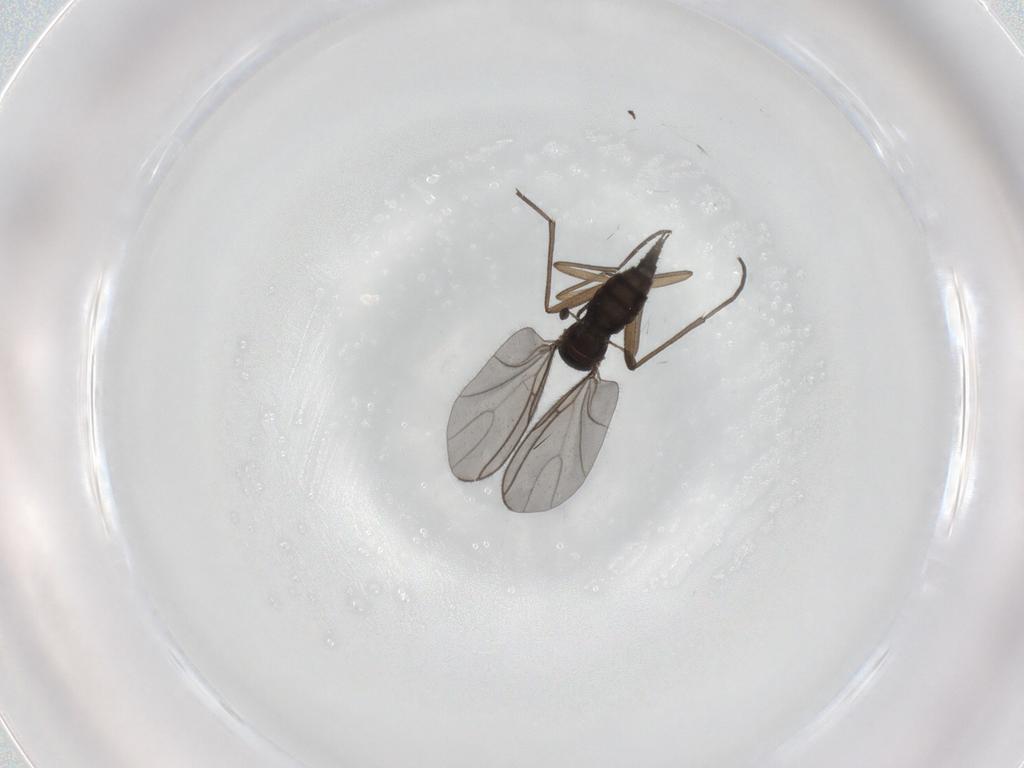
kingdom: Animalia
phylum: Arthropoda
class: Insecta
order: Diptera
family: Sciaridae
